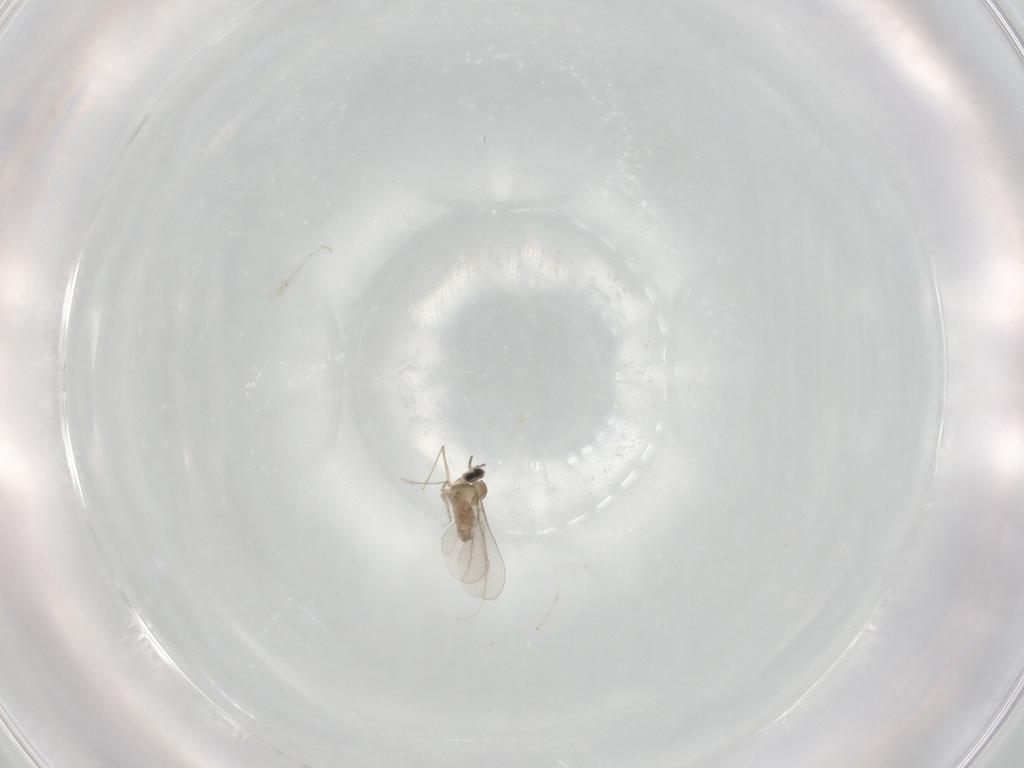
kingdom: Animalia
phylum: Arthropoda
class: Insecta
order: Diptera
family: Cecidomyiidae
